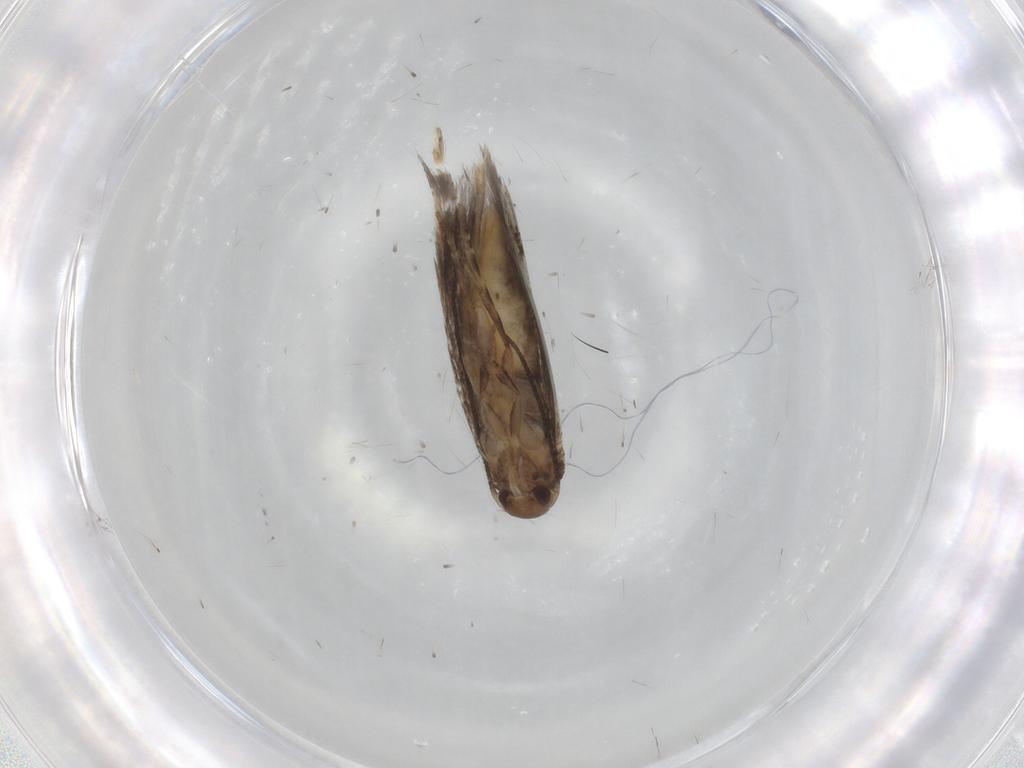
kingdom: Animalia
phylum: Arthropoda
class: Insecta
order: Lepidoptera
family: Elachistidae
